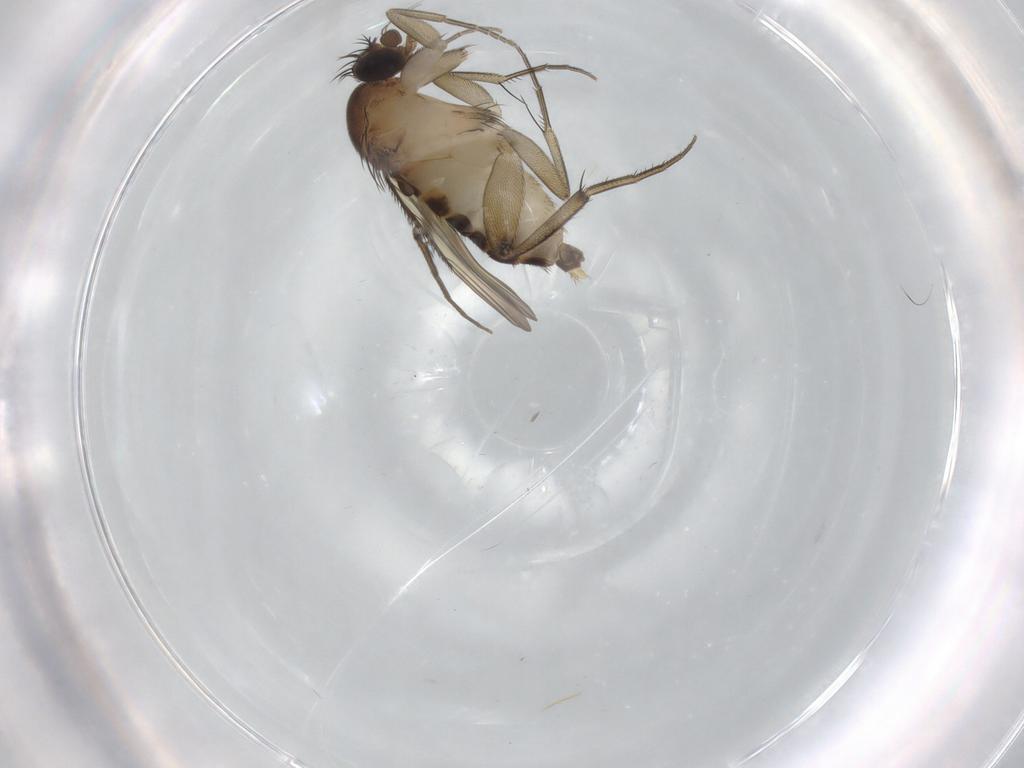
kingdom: Animalia
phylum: Arthropoda
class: Insecta
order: Diptera
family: Phoridae
